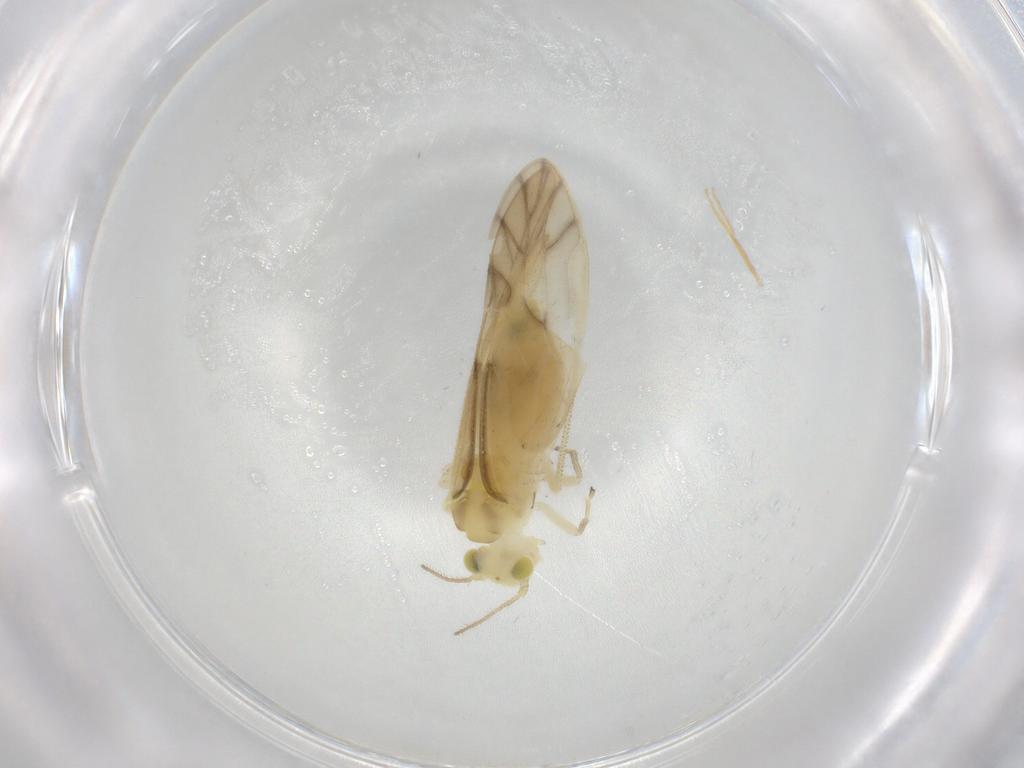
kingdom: Animalia
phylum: Arthropoda
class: Insecta
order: Psocodea
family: Caeciliusidae
